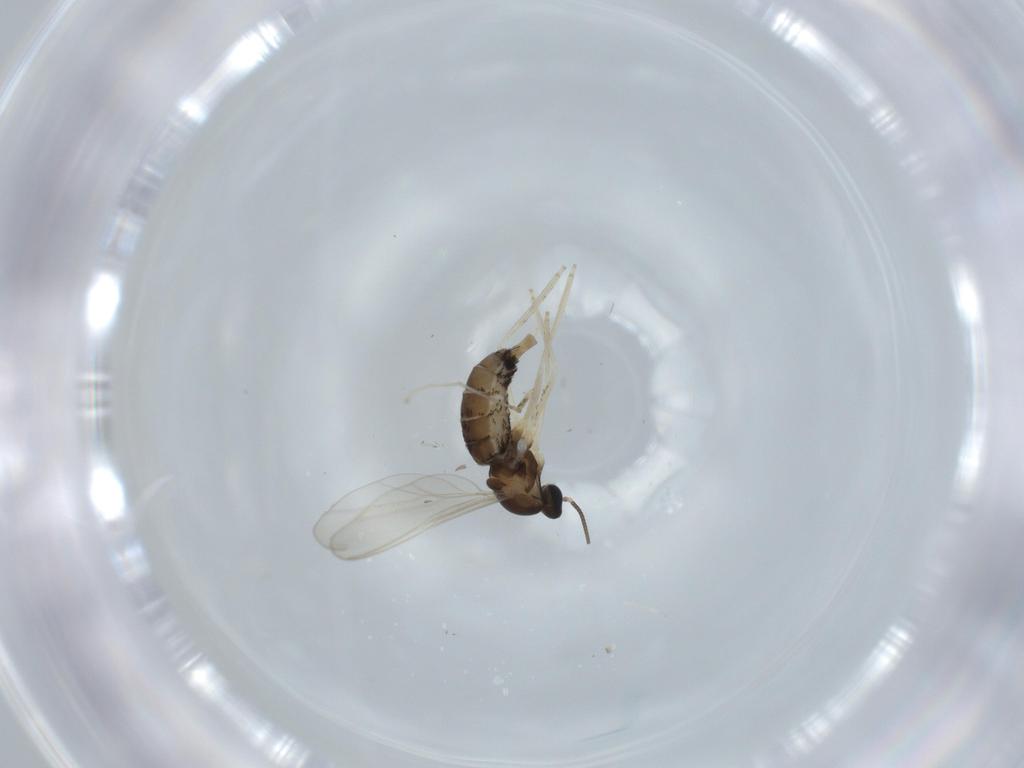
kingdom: Animalia
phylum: Arthropoda
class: Insecta
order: Diptera
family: Cecidomyiidae
